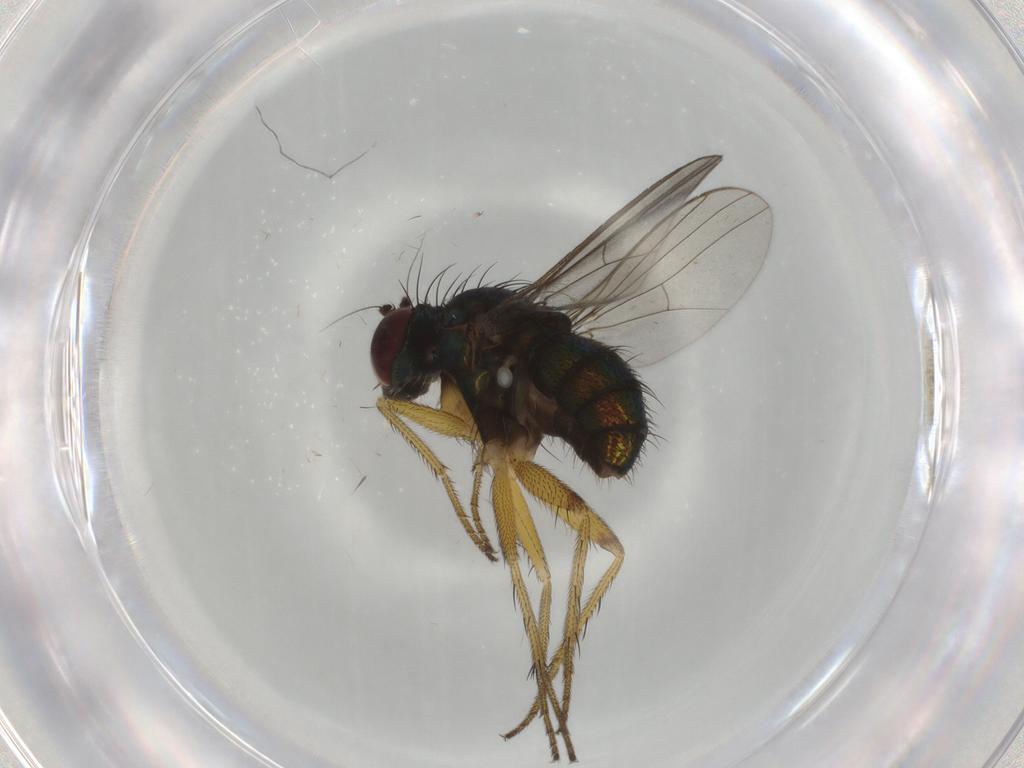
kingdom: Animalia
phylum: Arthropoda
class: Insecta
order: Diptera
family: Dolichopodidae
